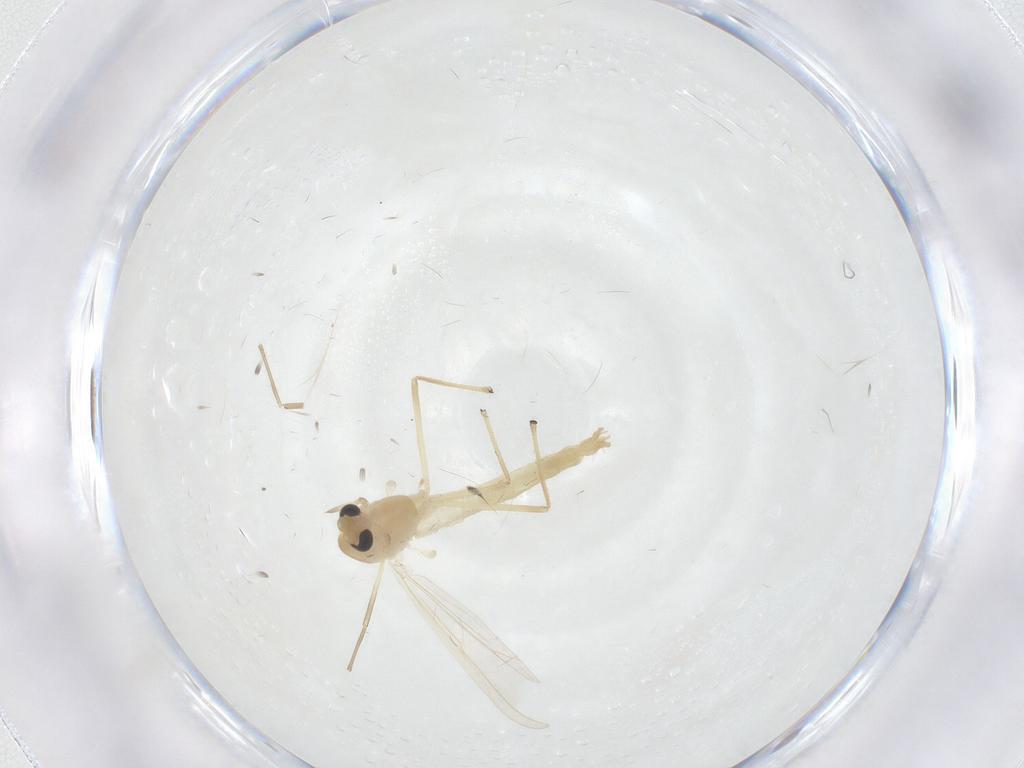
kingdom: Animalia
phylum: Arthropoda
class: Insecta
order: Diptera
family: Chironomidae
